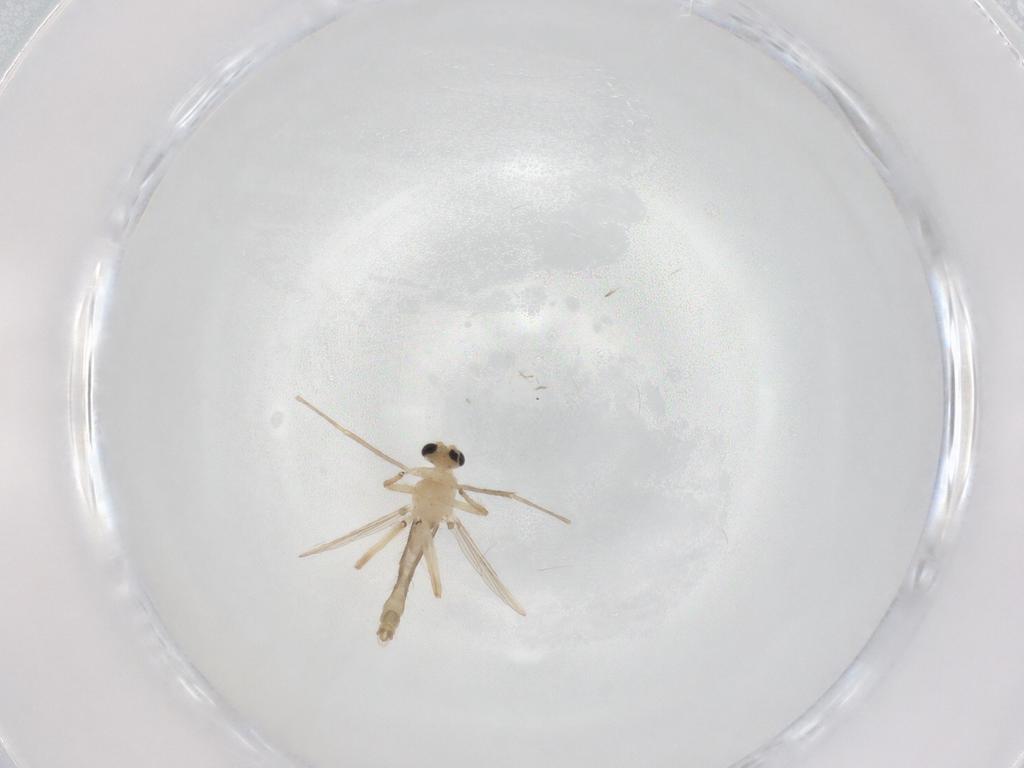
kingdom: Animalia
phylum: Arthropoda
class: Insecta
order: Diptera
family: Chironomidae
